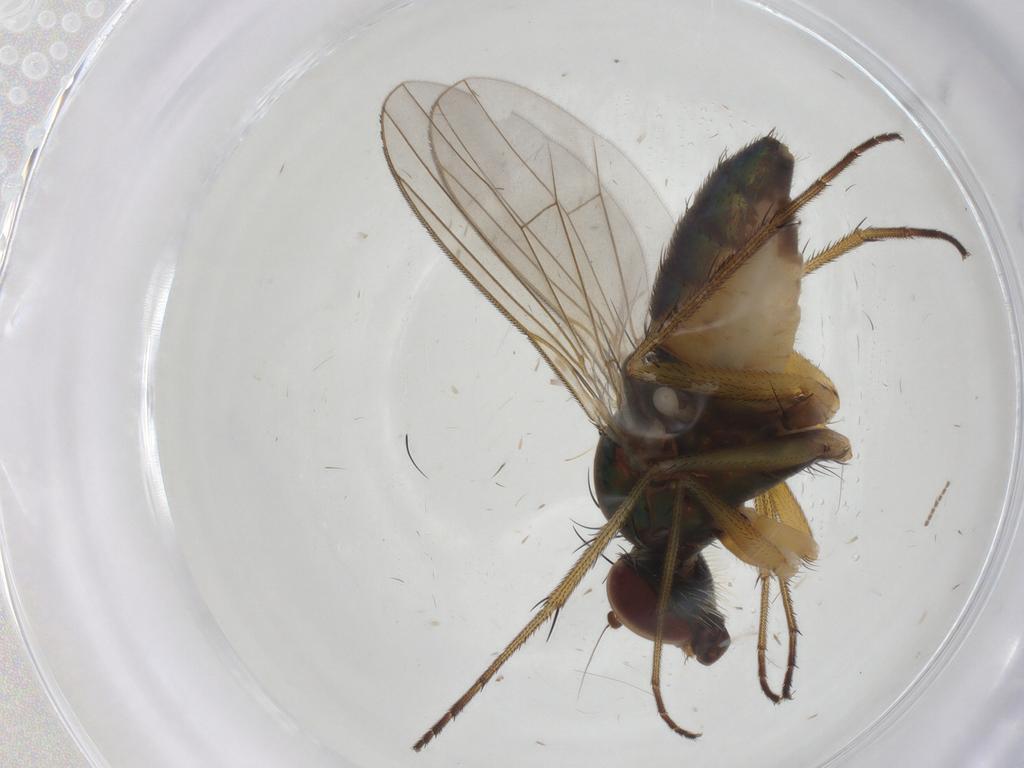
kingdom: Animalia
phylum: Arthropoda
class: Insecta
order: Diptera
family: Sciaridae
